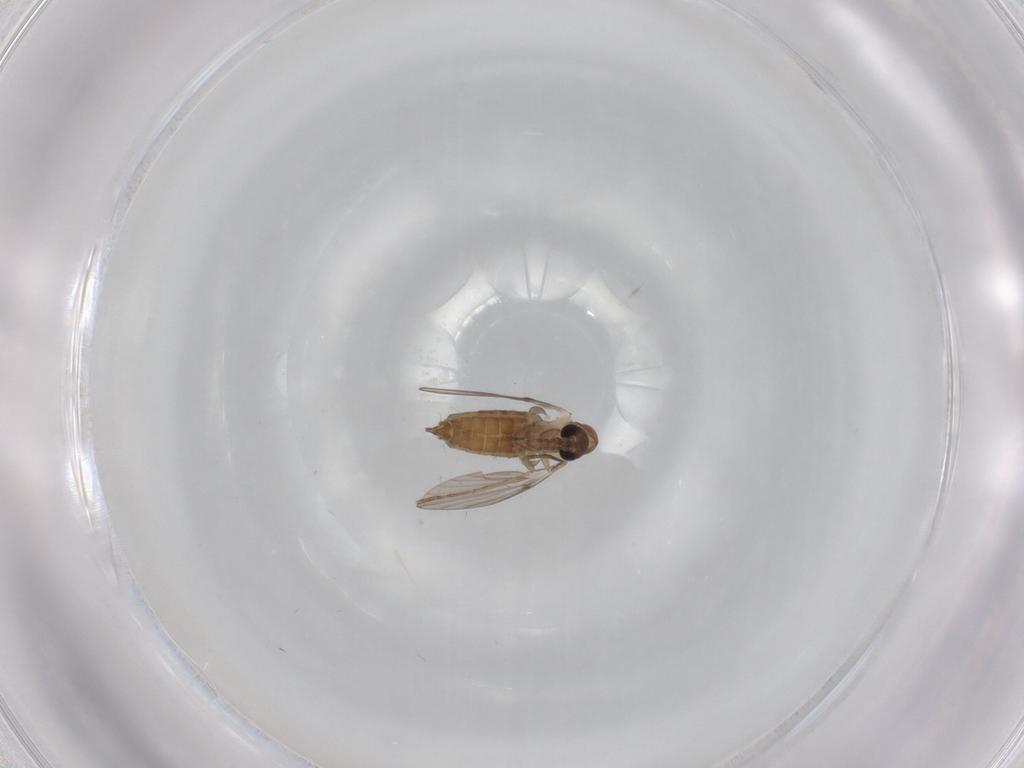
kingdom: Animalia
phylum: Arthropoda
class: Insecta
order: Diptera
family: Psychodidae
